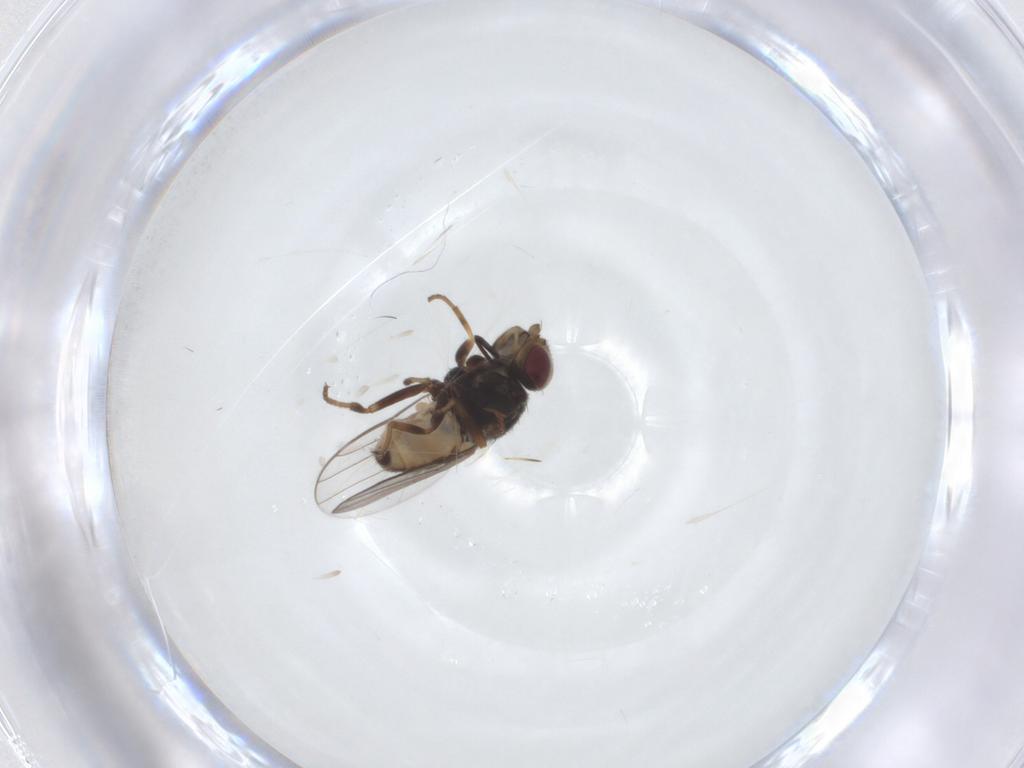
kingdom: Animalia
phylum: Arthropoda
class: Insecta
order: Diptera
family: Chloropidae
